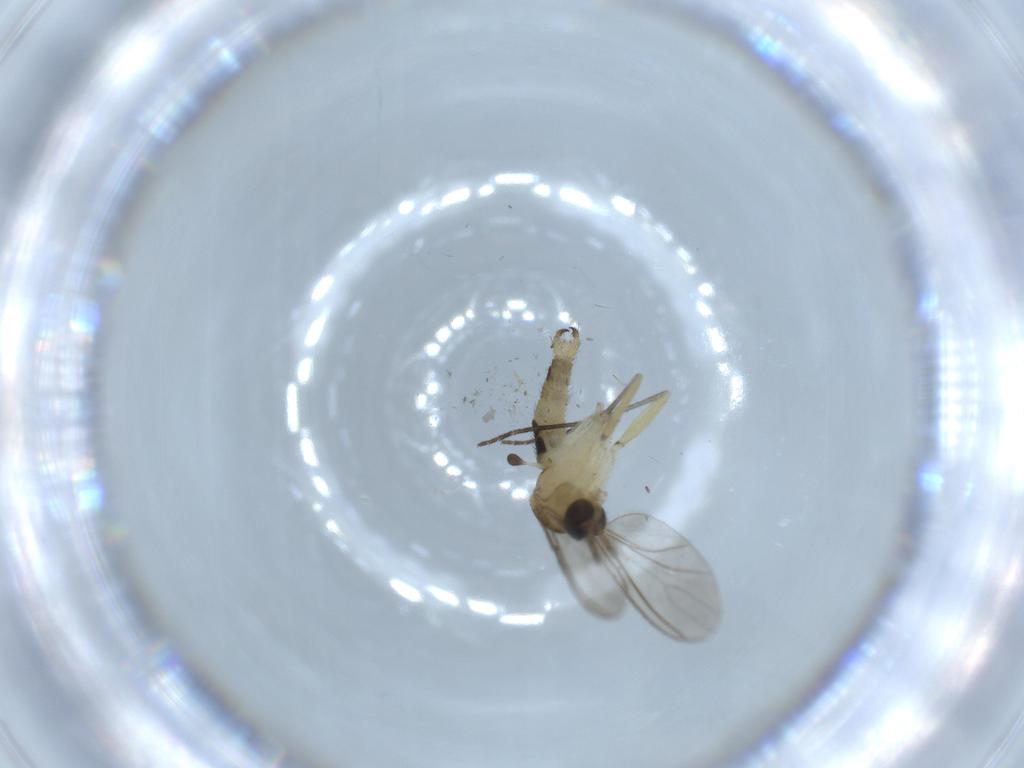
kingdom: Animalia
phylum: Arthropoda
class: Insecta
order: Diptera
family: Sciaridae
